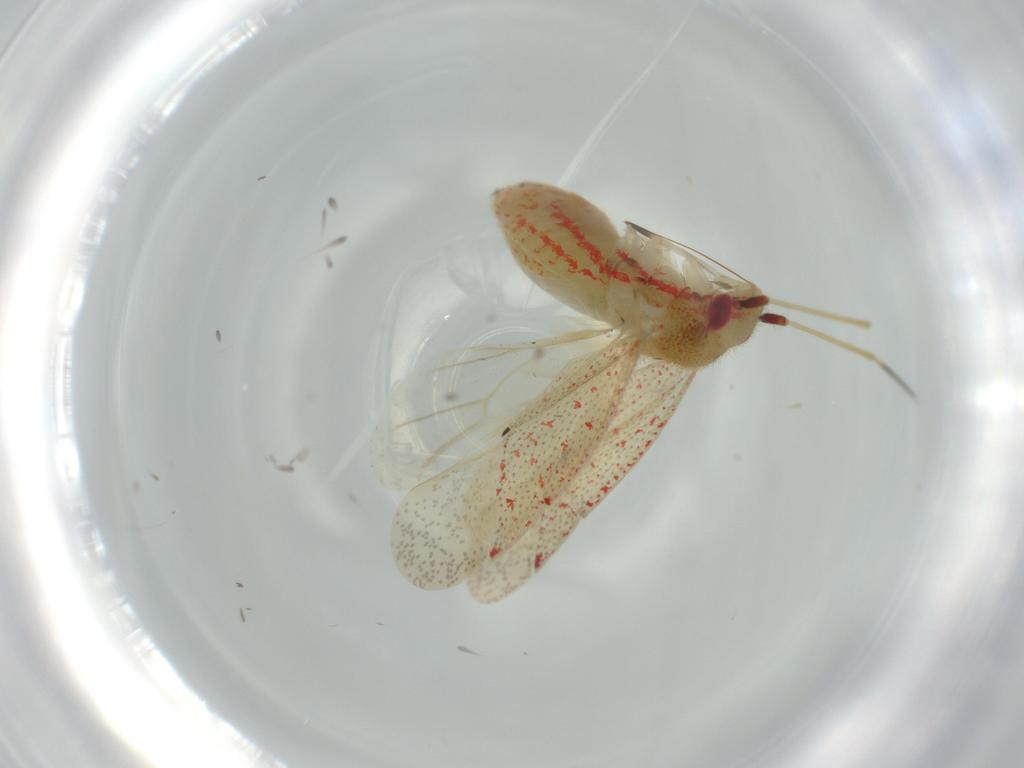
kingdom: Animalia
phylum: Arthropoda
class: Insecta
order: Hemiptera
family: Miridae
